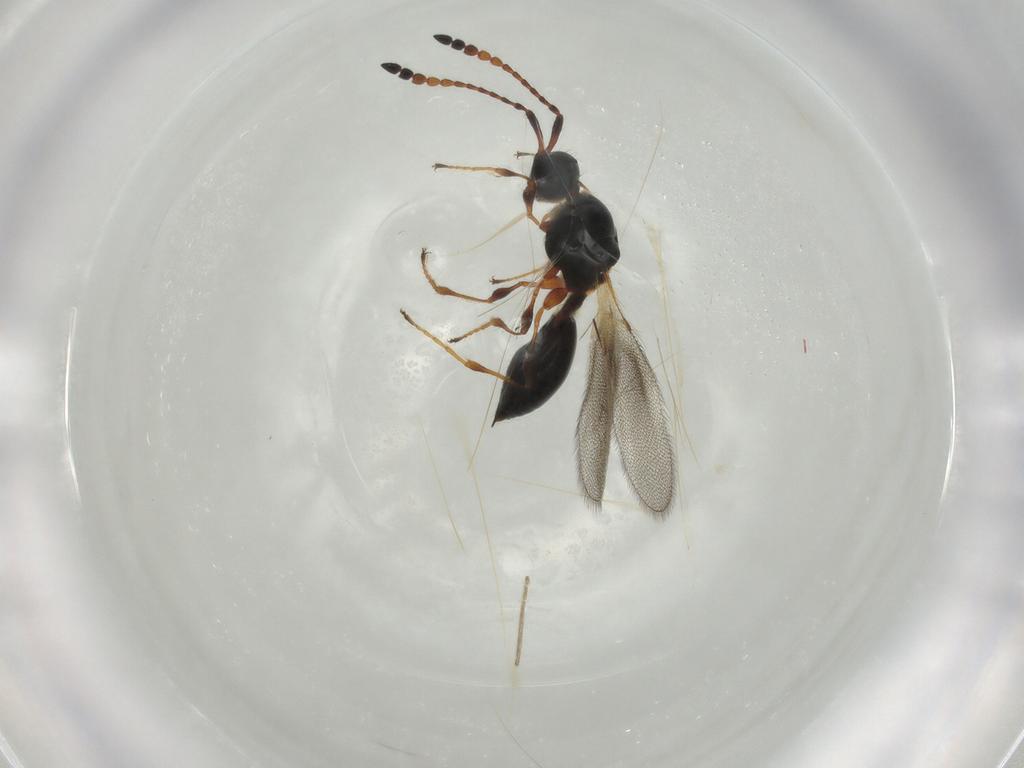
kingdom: Animalia
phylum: Arthropoda
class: Insecta
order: Hymenoptera
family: Diapriidae
